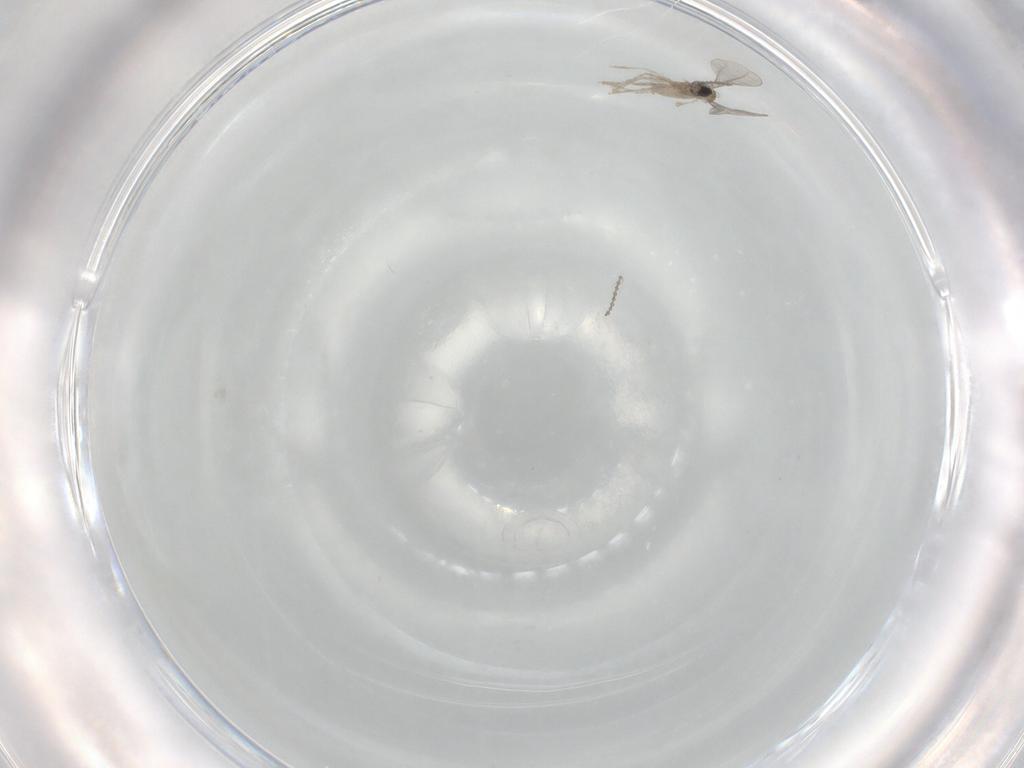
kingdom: Animalia
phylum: Arthropoda
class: Insecta
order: Diptera
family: Cecidomyiidae
